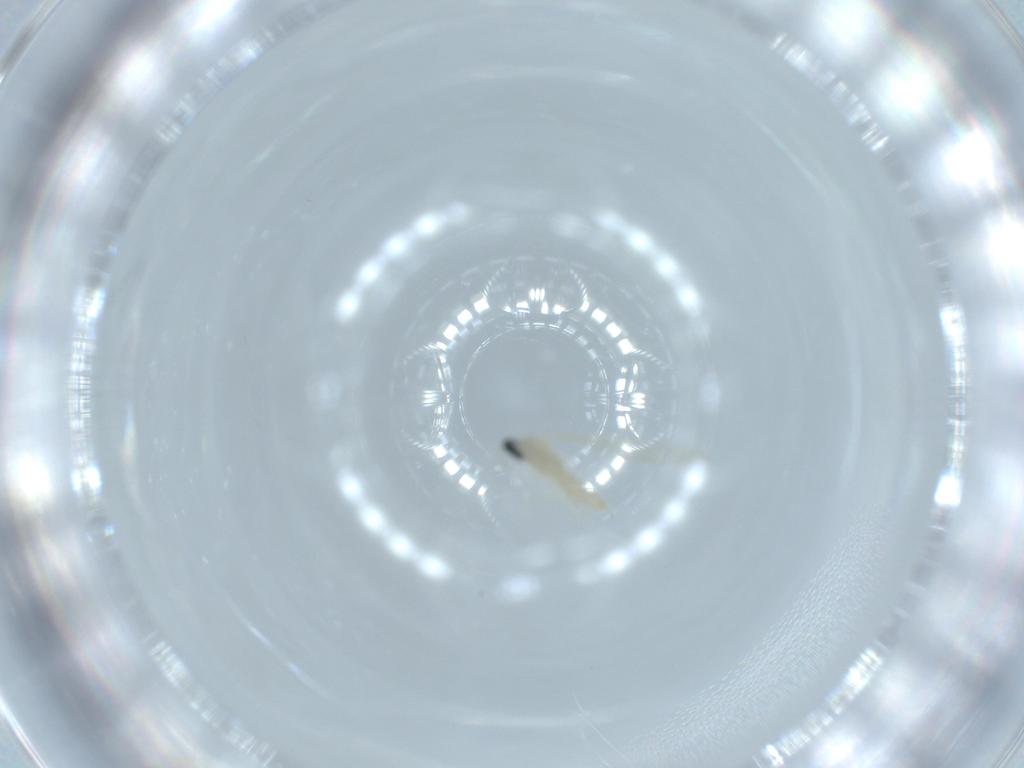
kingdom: Animalia
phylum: Arthropoda
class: Insecta
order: Diptera
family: Cecidomyiidae
